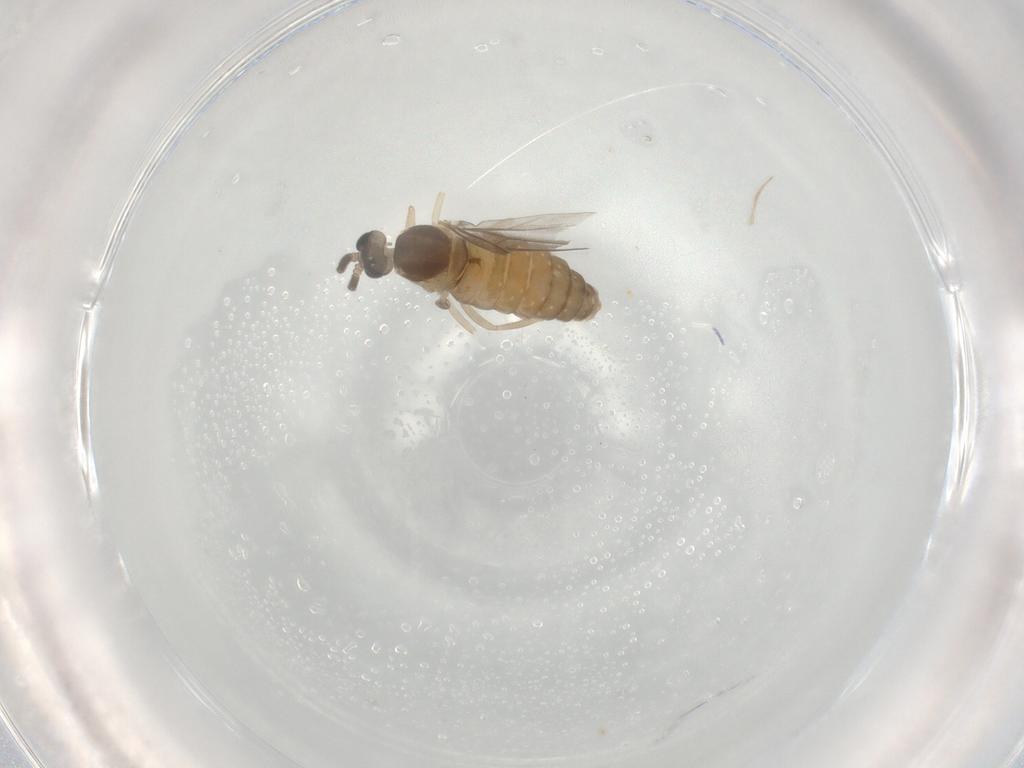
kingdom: Animalia
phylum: Arthropoda
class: Insecta
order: Diptera
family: Cecidomyiidae
